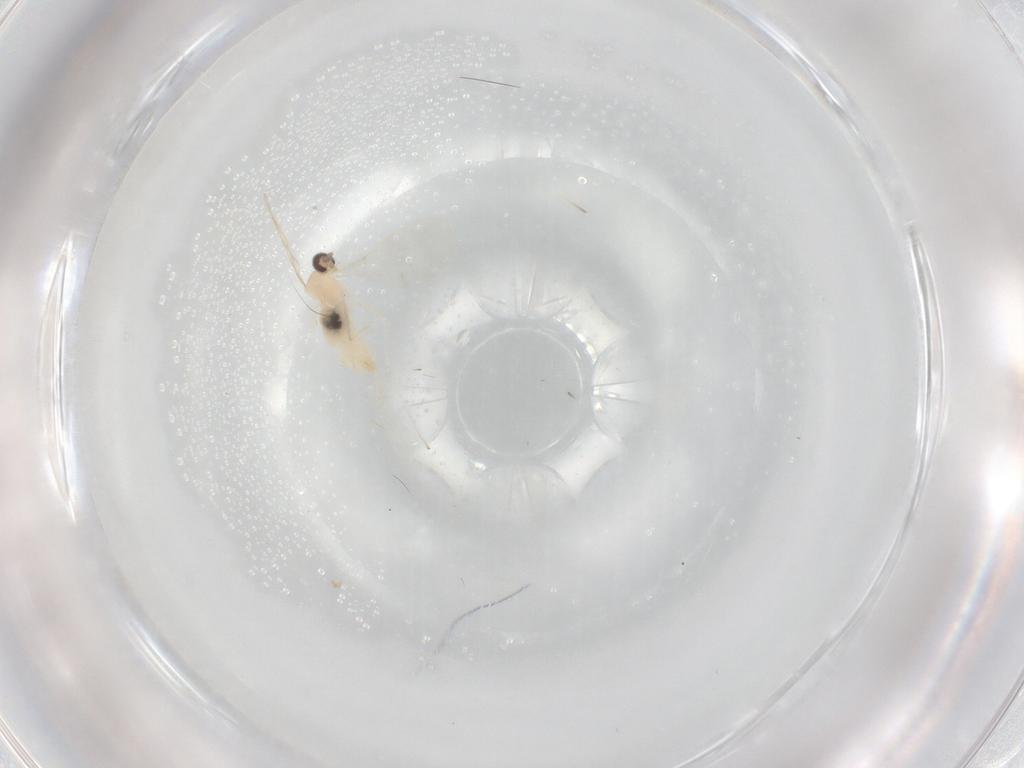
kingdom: Animalia
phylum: Arthropoda
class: Insecta
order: Diptera
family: Cecidomyiidae
